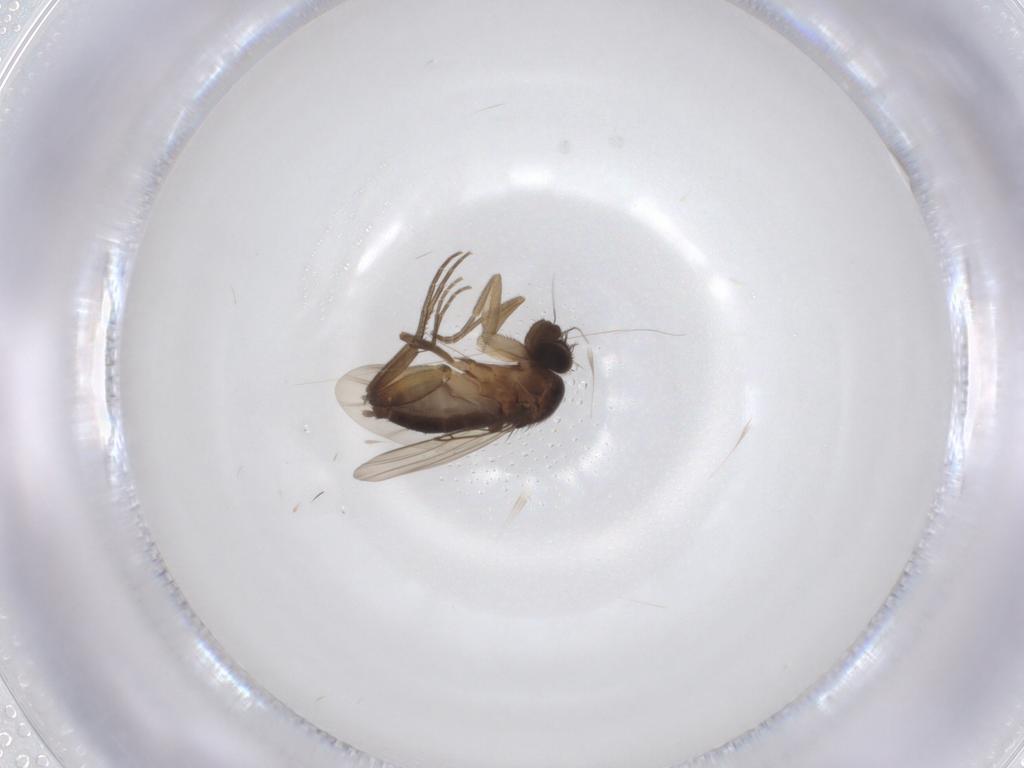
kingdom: Animalia
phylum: Arthropoda
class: Insecta
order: Diptera
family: Phoridae
